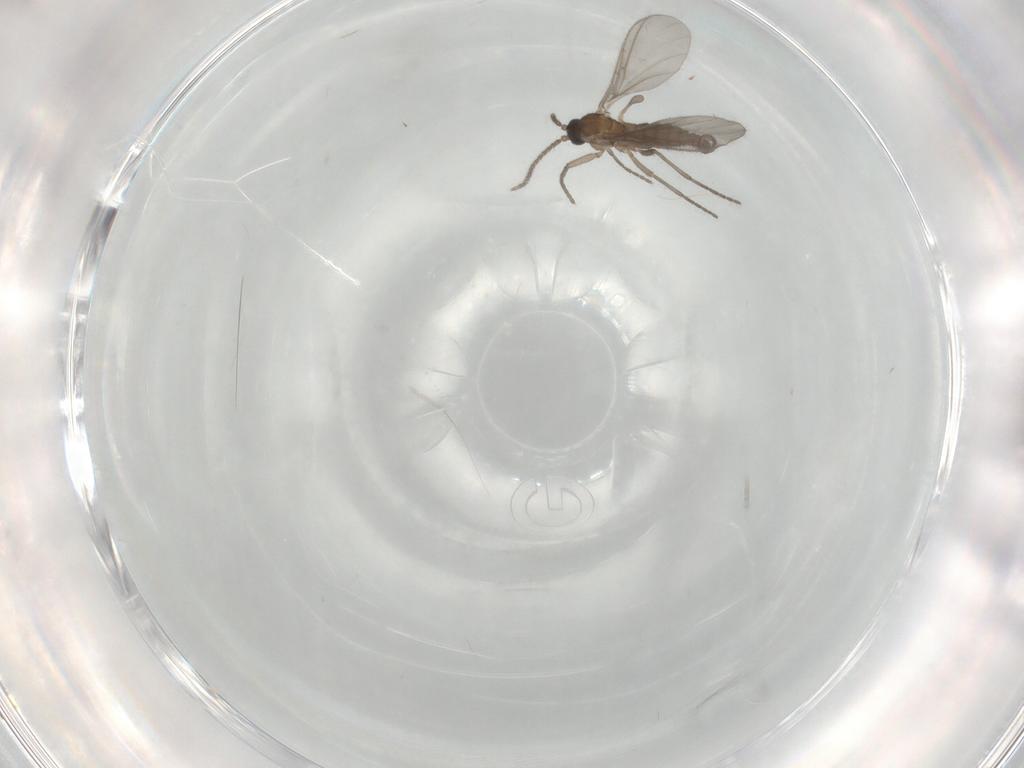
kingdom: Animalia
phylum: Arthropoda
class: Insecta
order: Diptera
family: Sciaridae
